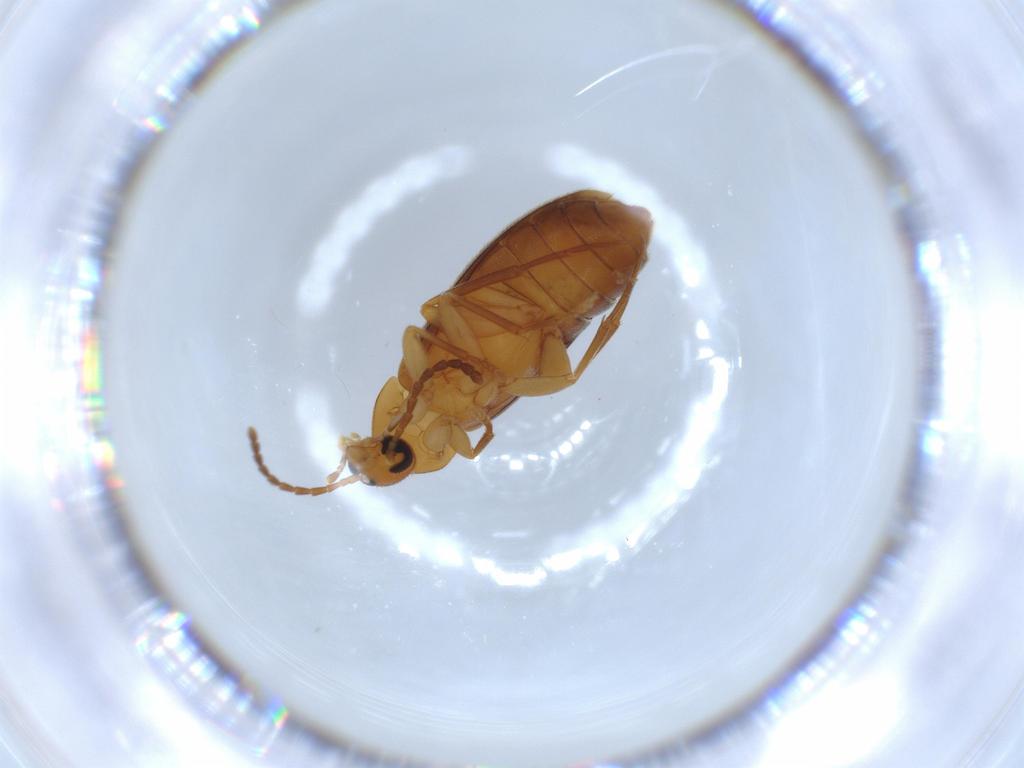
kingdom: Animalia
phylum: Arthropoda
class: Insecta
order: Coleoptera
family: Scraptiidae
